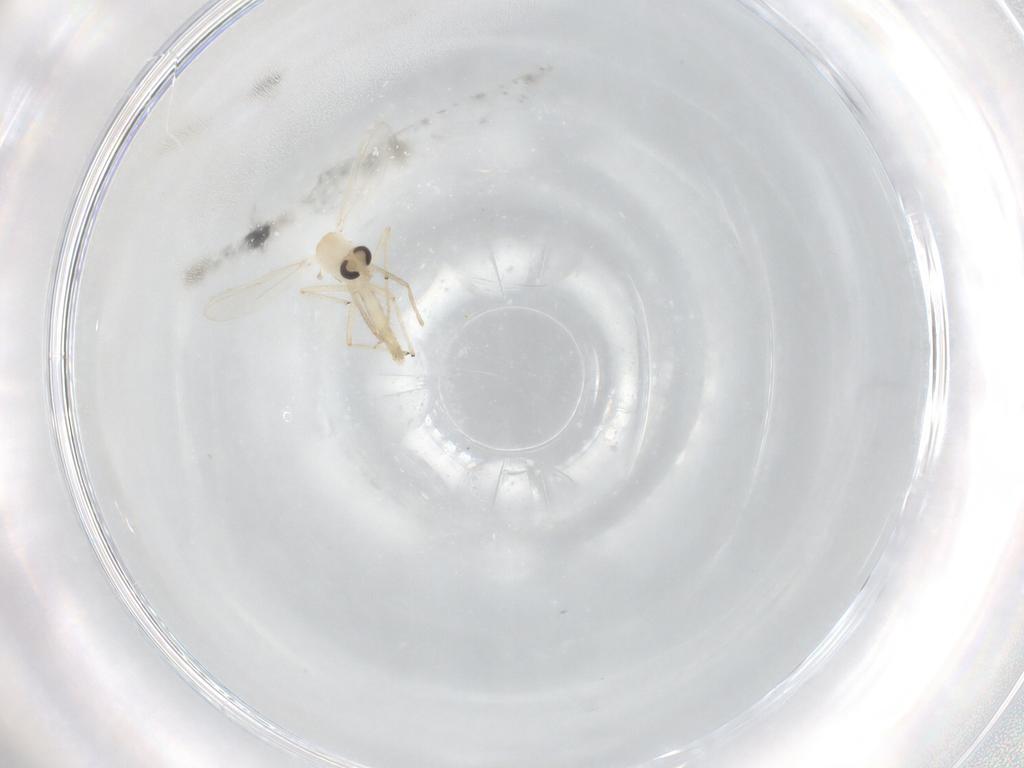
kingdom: Animalia
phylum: Arthropoda
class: Insecta
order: Diptera
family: Chironomidae
